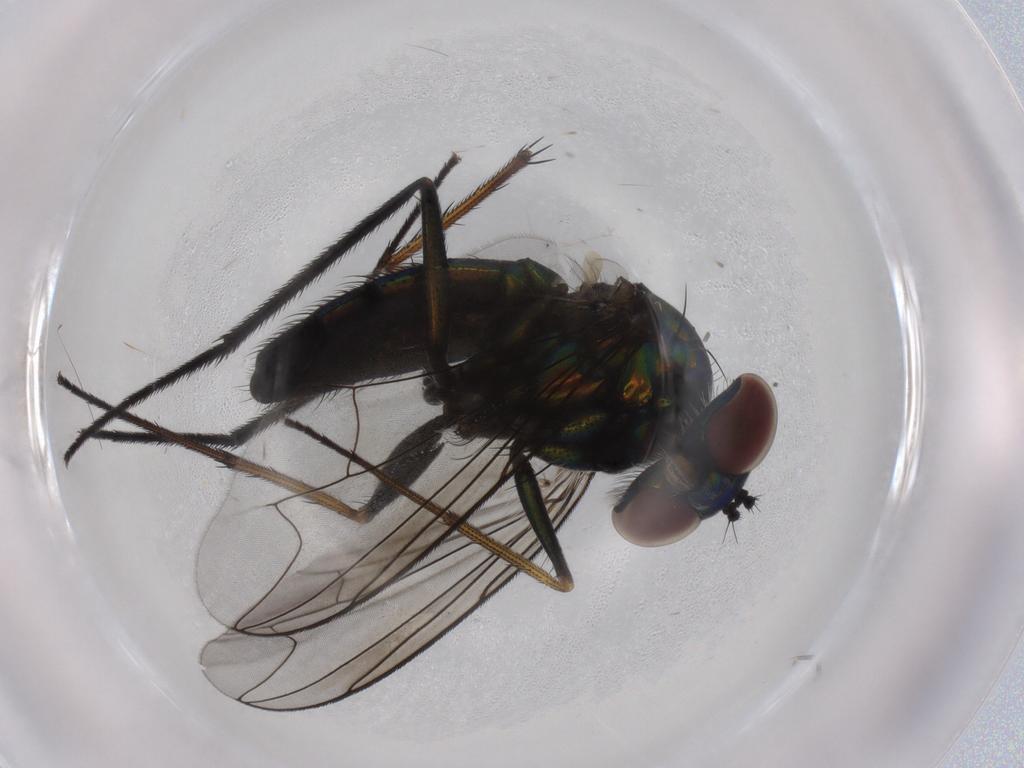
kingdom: Animalia
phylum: Arthropoda
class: Insecta
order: Diptera
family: Dolichopodidae
